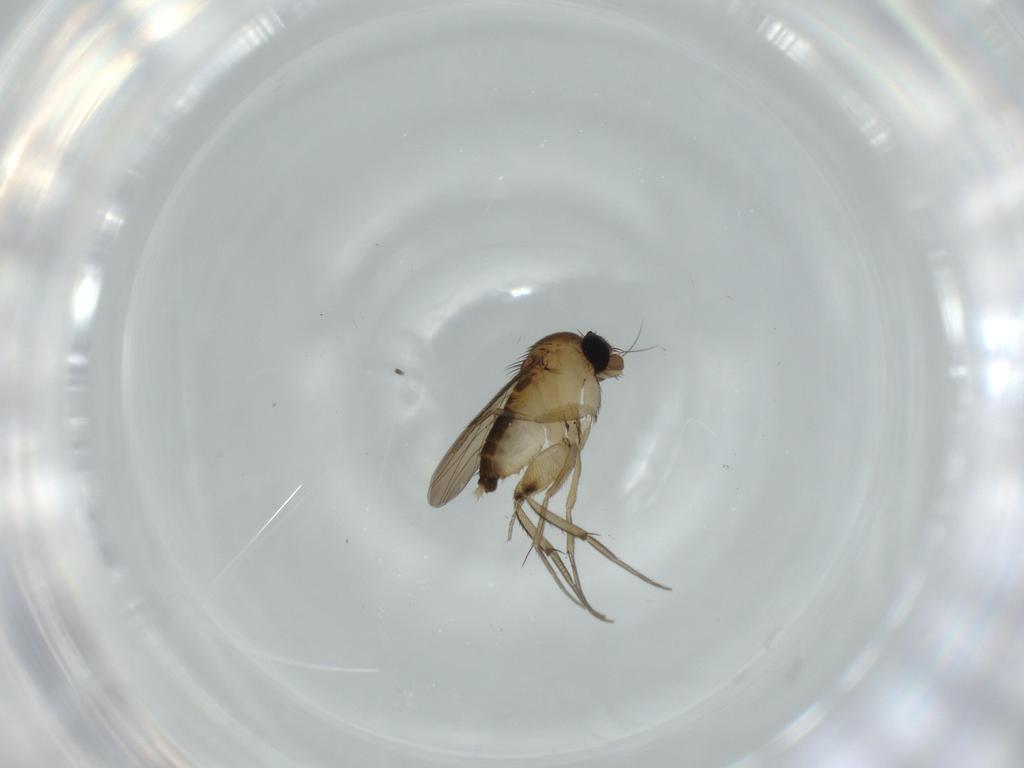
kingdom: Animalia
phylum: Arthropoda
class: Insecta
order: Diptera
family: Phoridae
